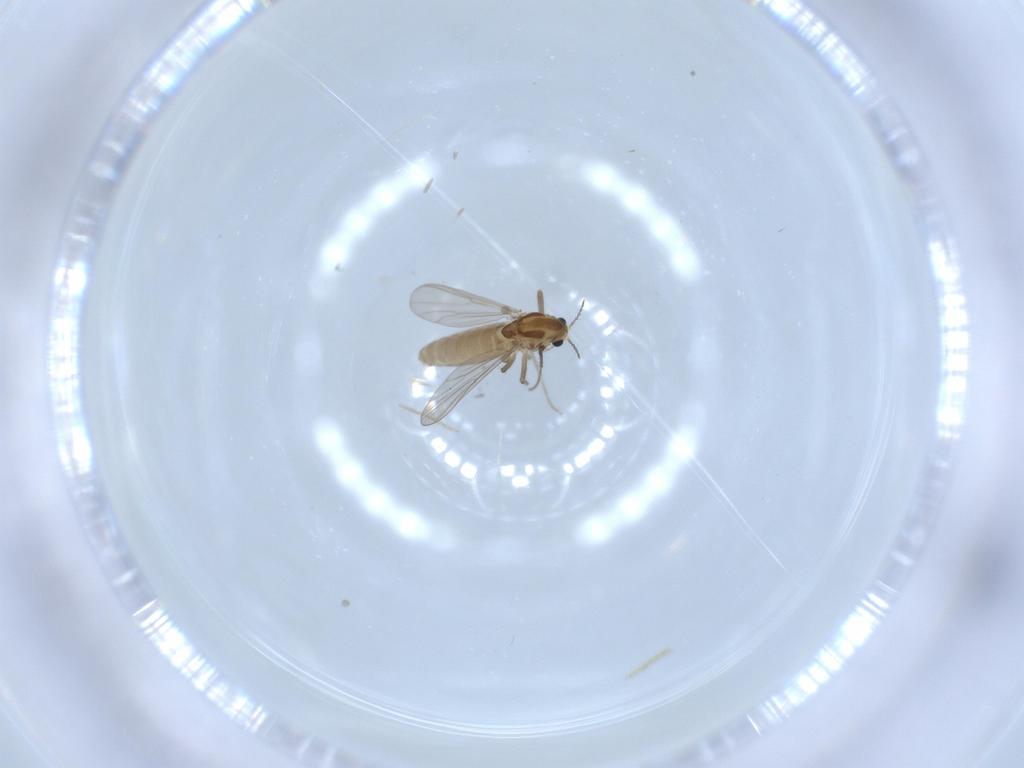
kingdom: Animalia
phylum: Arthropoda
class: Insecta
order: Diptera
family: Chironomidae
